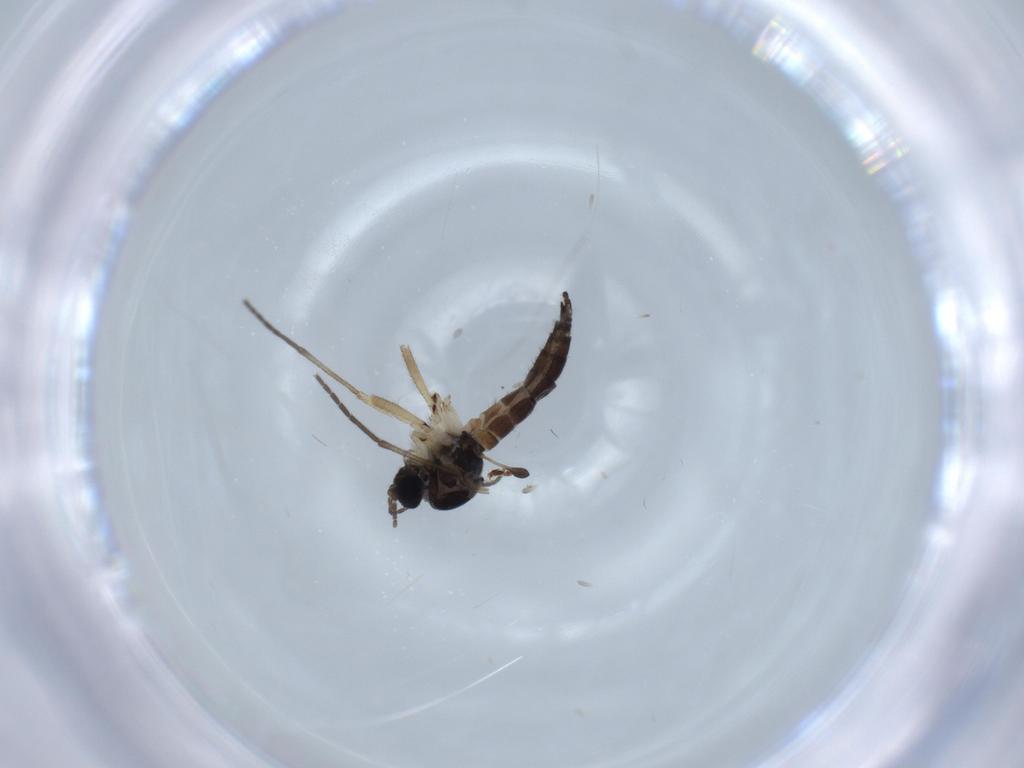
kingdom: Animalia
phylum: Arthropoda
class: Insecta
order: Diptera
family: Sciaridae
